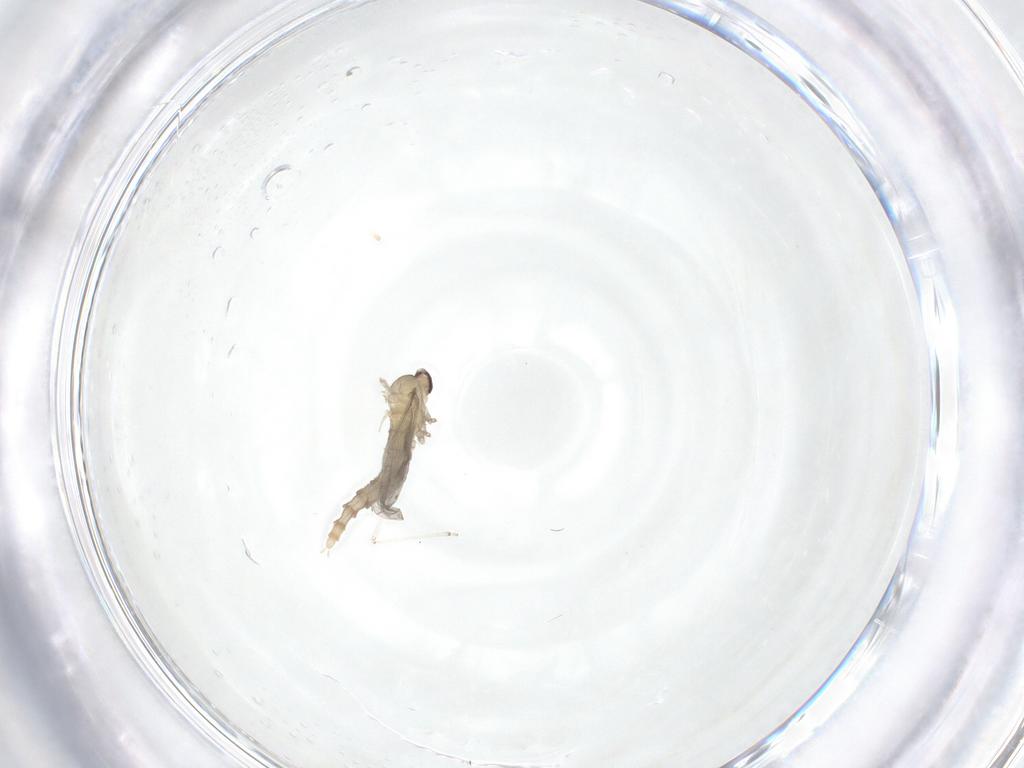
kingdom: Animalia
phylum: Arthropoda
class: Insecta
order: Diptera
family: Cecidomyiidae
